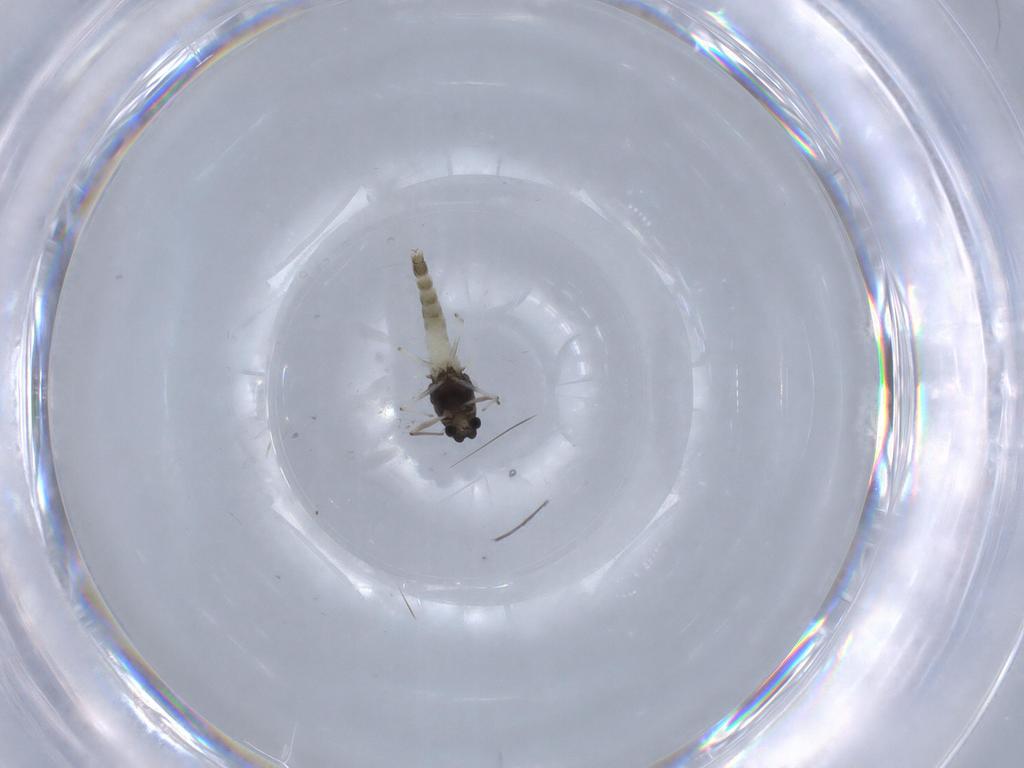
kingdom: Animalia
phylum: Arthropoda
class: Insecta
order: Diptera
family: Chironomidae
